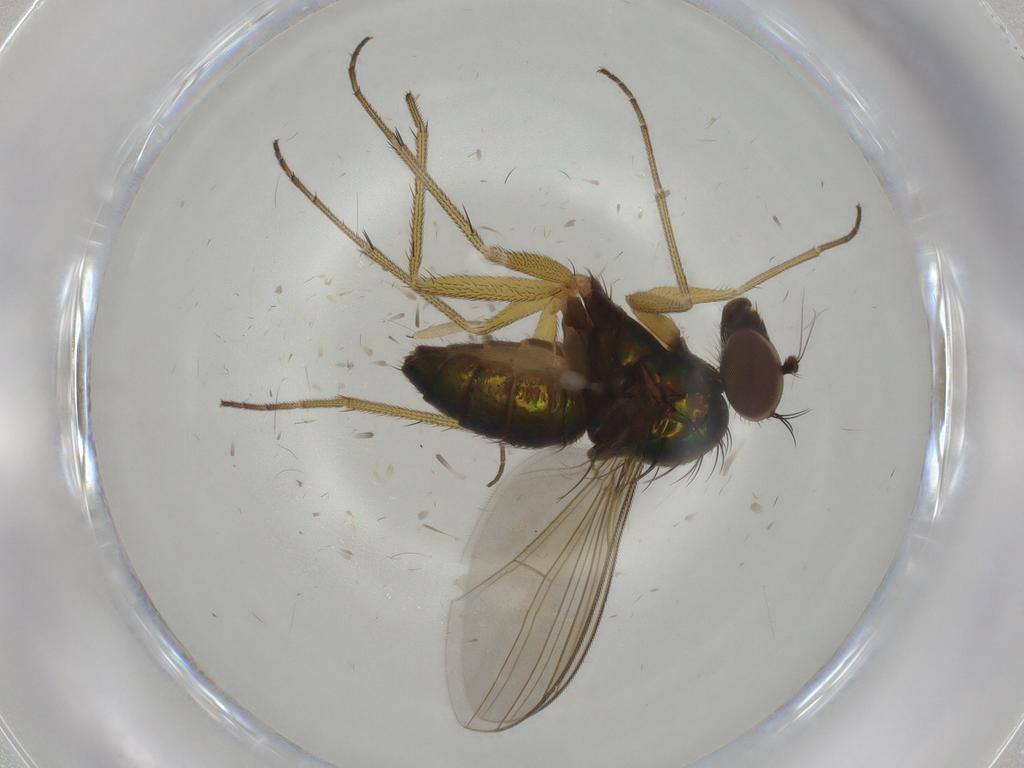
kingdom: Animalia
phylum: Arthropoda
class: Insecta
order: Diptera
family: Dolichopodidae
